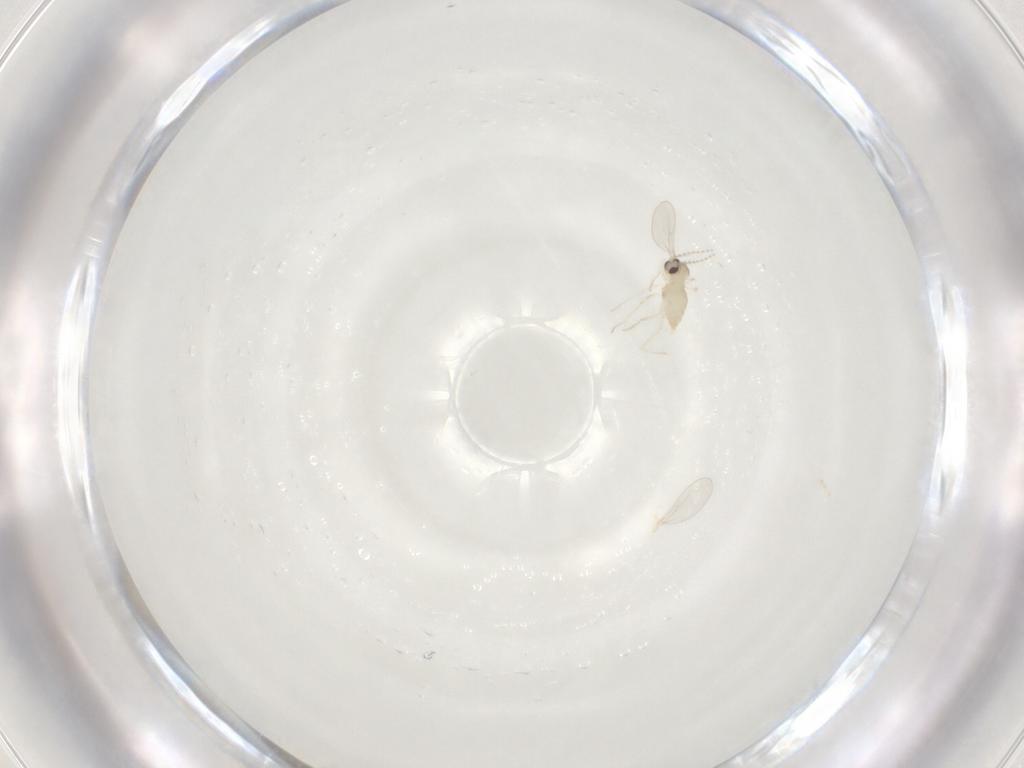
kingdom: Animalia
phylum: Arthropoda
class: Insecta
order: Diptera
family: Cecidomyiidae
